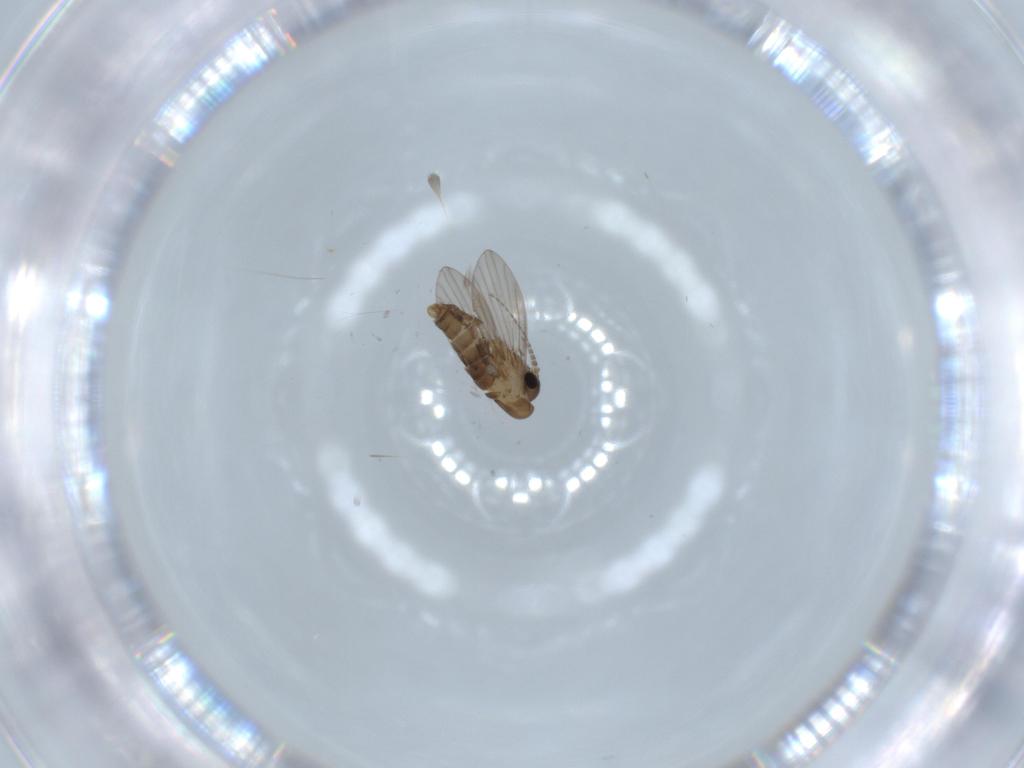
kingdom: Animalia
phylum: Arthropoda
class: Insecta
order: Diptera
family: Psychodidae
